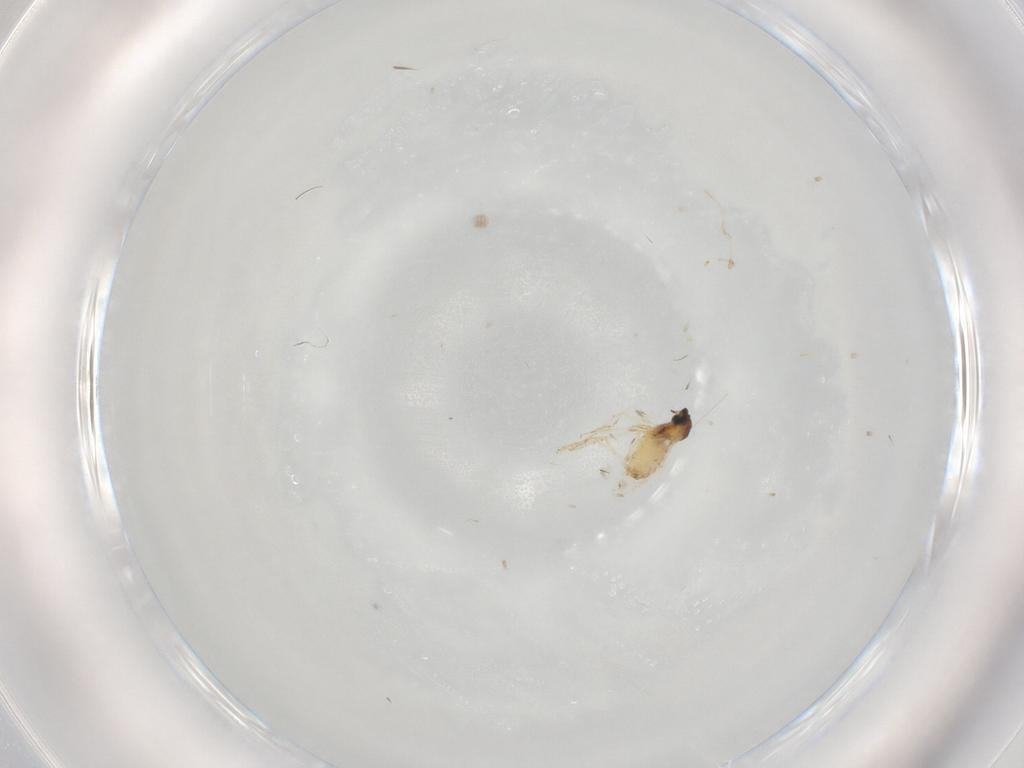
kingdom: Animalia
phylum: Arthropoda
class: Insecta
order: Diptera
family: Cecidomyiidae
